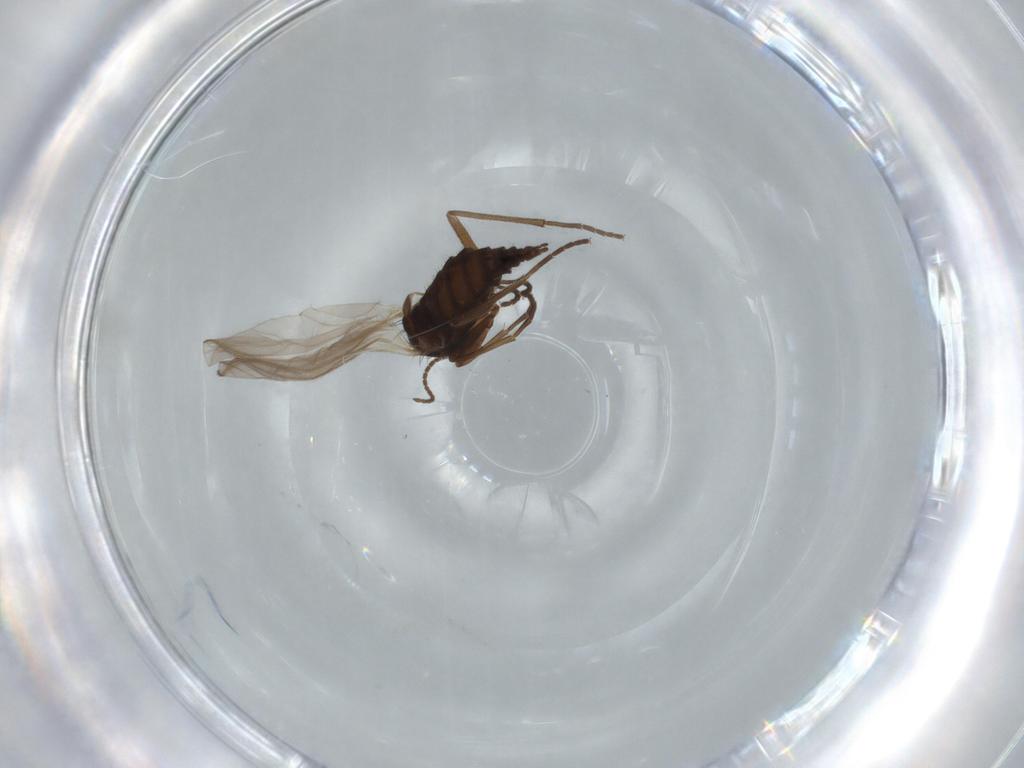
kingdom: Animalia
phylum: Arthropoda
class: Insecta
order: Diptera
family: Sciaridae
